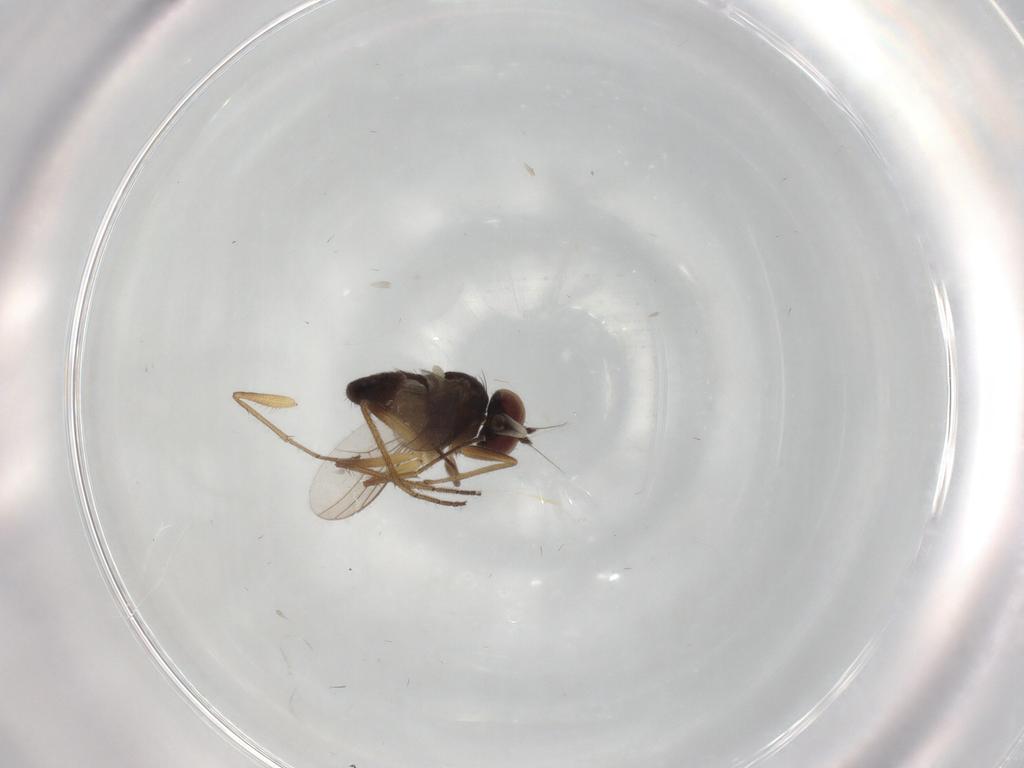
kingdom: Animalia
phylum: Arthropoda
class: Insecta
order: Diptera
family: Dolichopodidae
